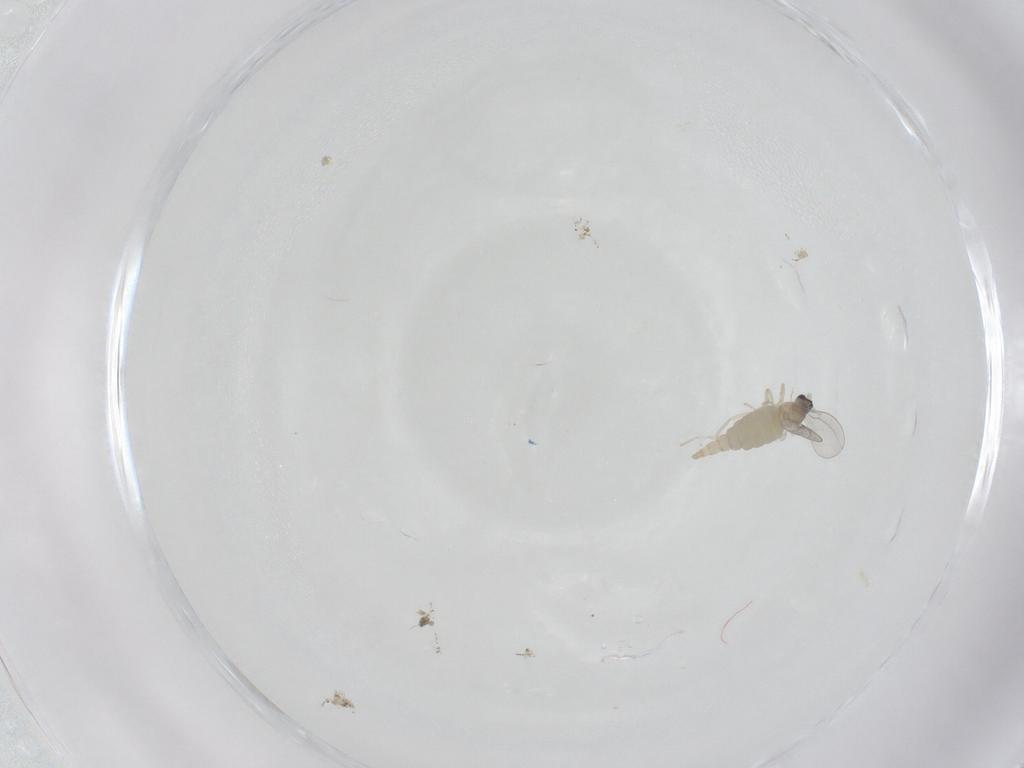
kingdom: Animalia
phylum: Arthropoda
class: Insecta
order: Diptera
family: Cecidomyiidae
